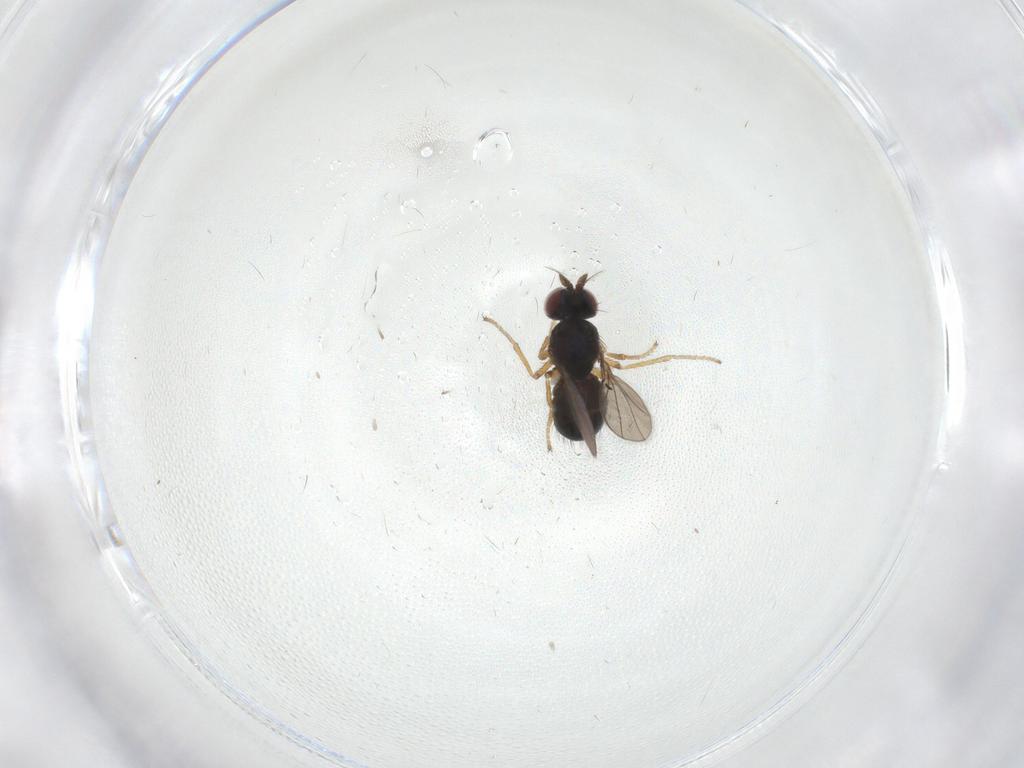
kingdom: Animalia
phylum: Arthropoda
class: Insecta
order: Diptera
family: Ephydridae
